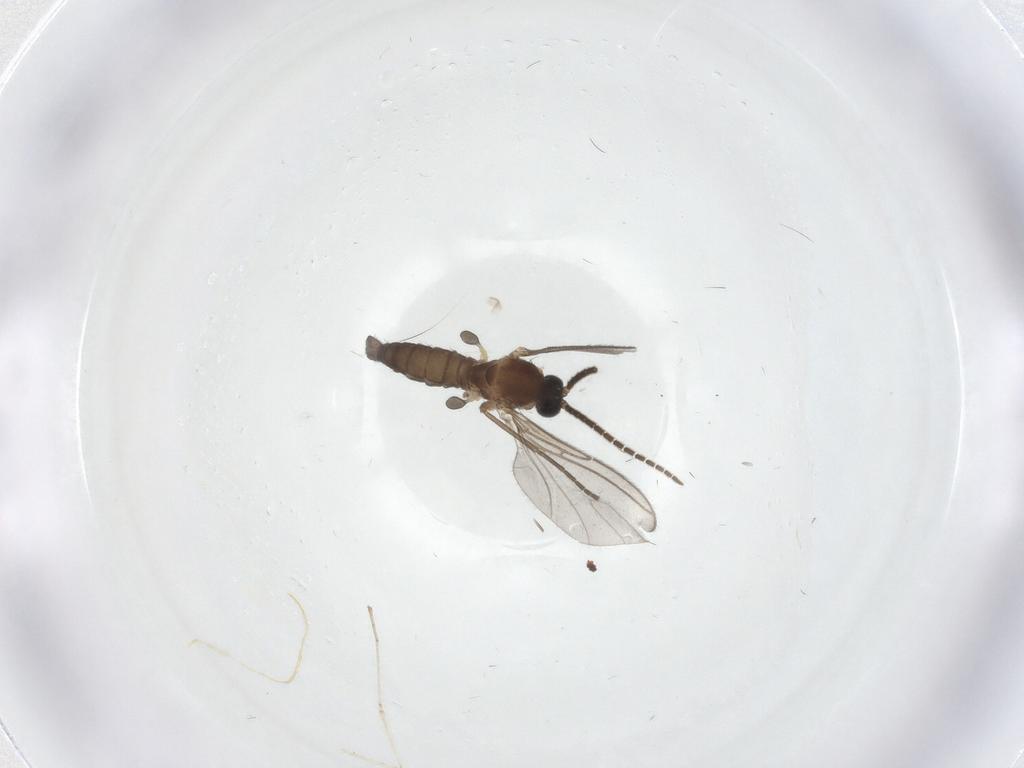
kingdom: Animalia
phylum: Arthropoda
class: Insecta
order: Diptera
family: Sciaridae
